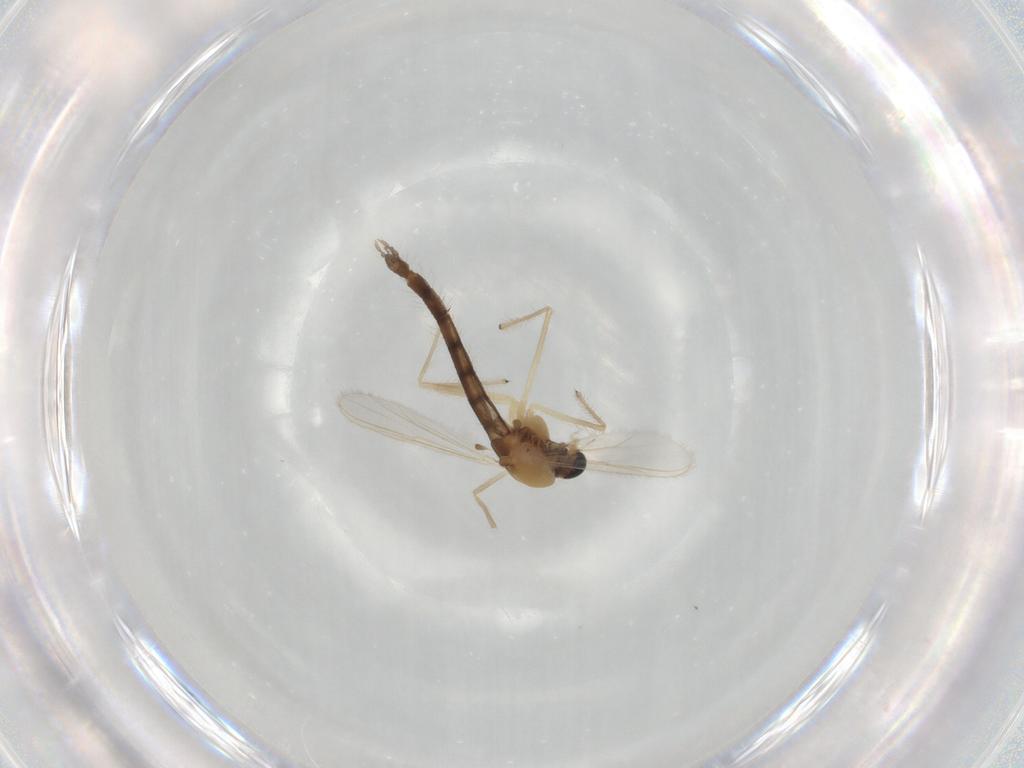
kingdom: Animalia
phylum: Arthropoda
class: Insecta
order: Diptera
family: Chironomidae
